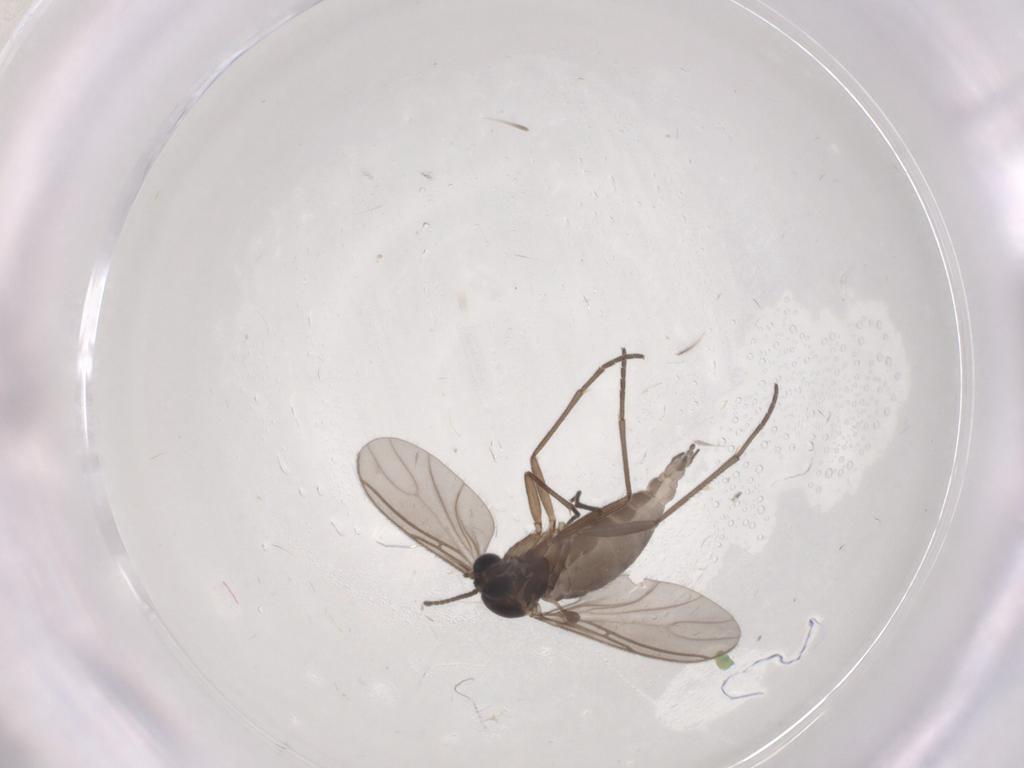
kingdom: Animalia
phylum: Arthropoda
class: Insecta
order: Diptera
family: Sciaridae
